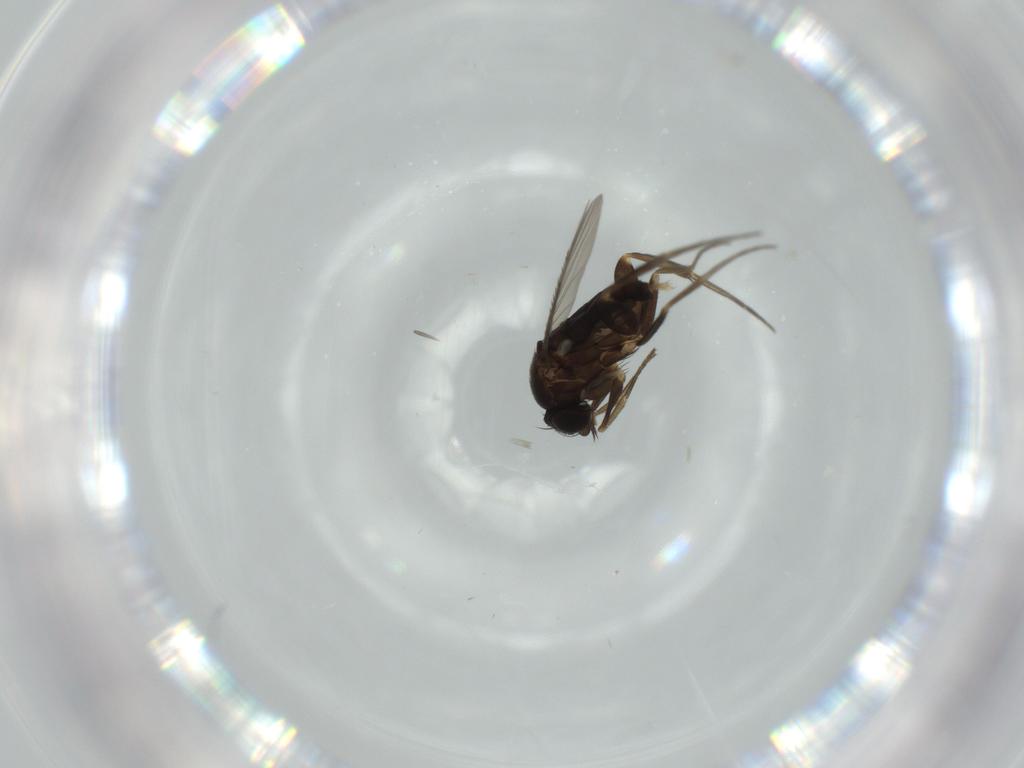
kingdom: Animalia
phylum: Arthropoda
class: Insecta
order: Diptera
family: Phoridae
